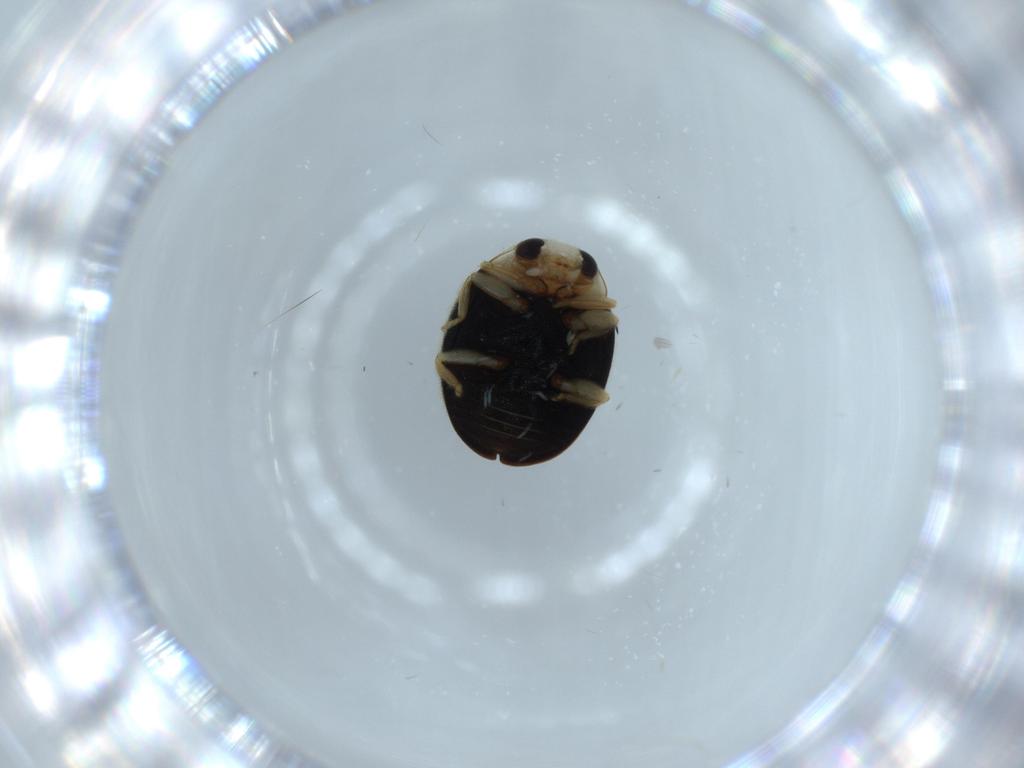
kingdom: Animalia
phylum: Arthropoda
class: Insecta
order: Coleoptera
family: Coccinellidae
